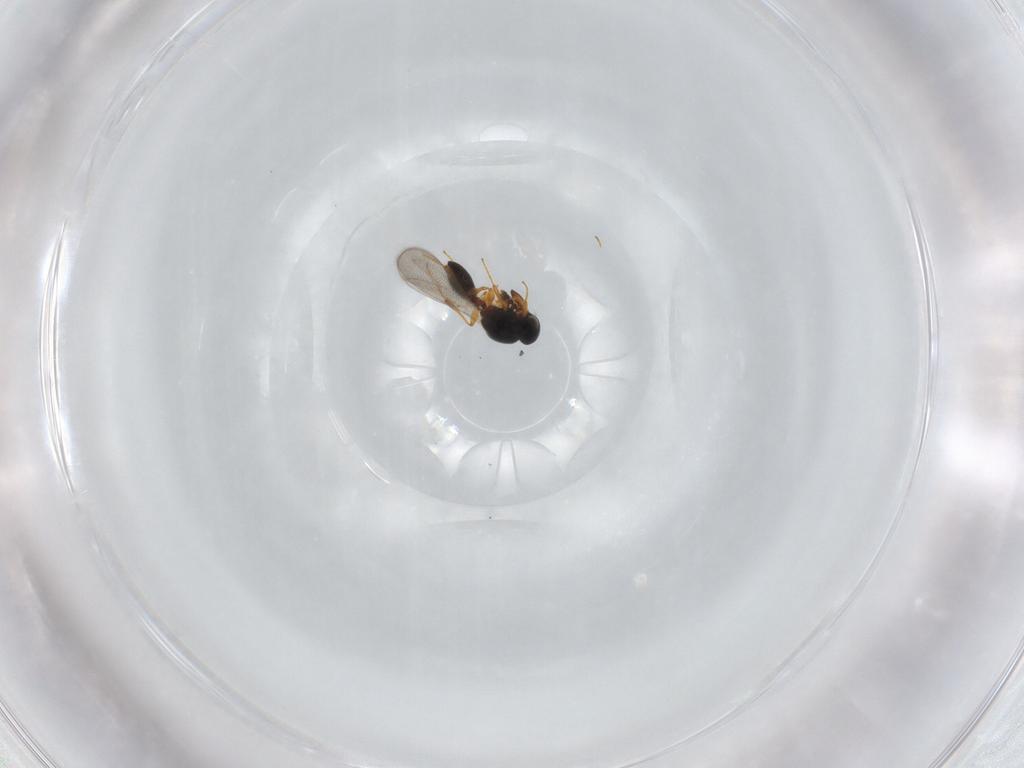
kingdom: Animalia
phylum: Arthropoda
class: Insecta
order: Hymenoptera
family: Platygastridae
